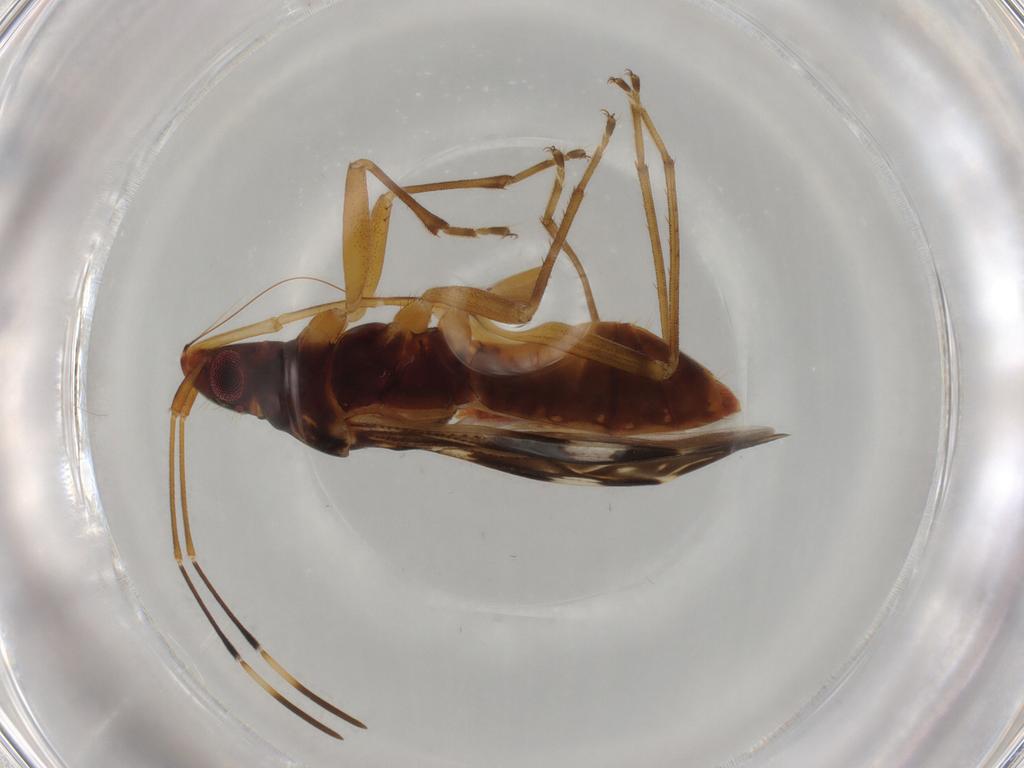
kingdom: Animalia
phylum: Arthropoda
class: Insecta
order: Hemiptera
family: Rhyparochromidae
